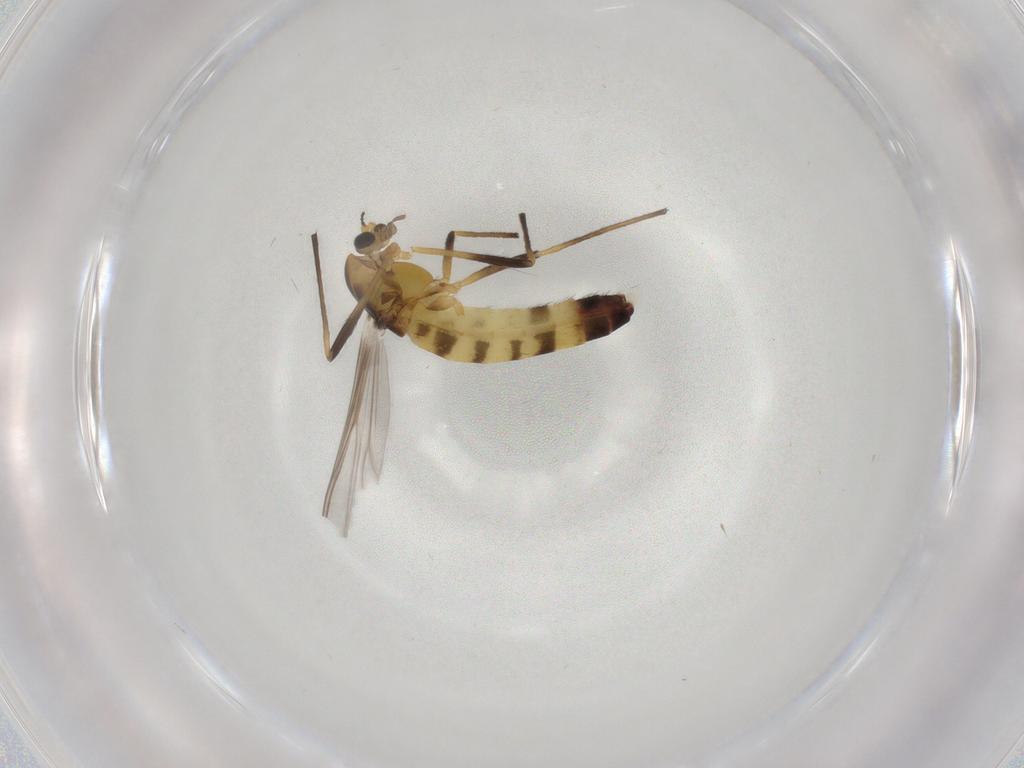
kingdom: Animalia
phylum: Arthropoda
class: Insecta
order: Diptera
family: Chironomidae
